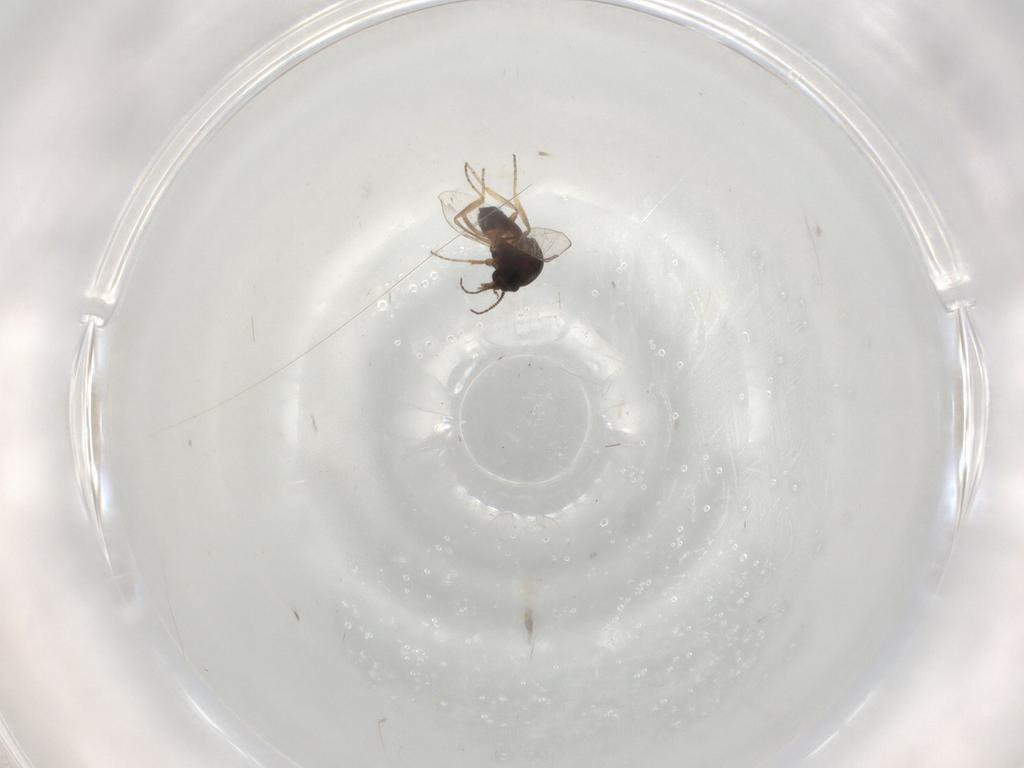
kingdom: Animalia
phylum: Arthropoda
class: Insecta
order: Diptera
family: Ceratopogonidae
